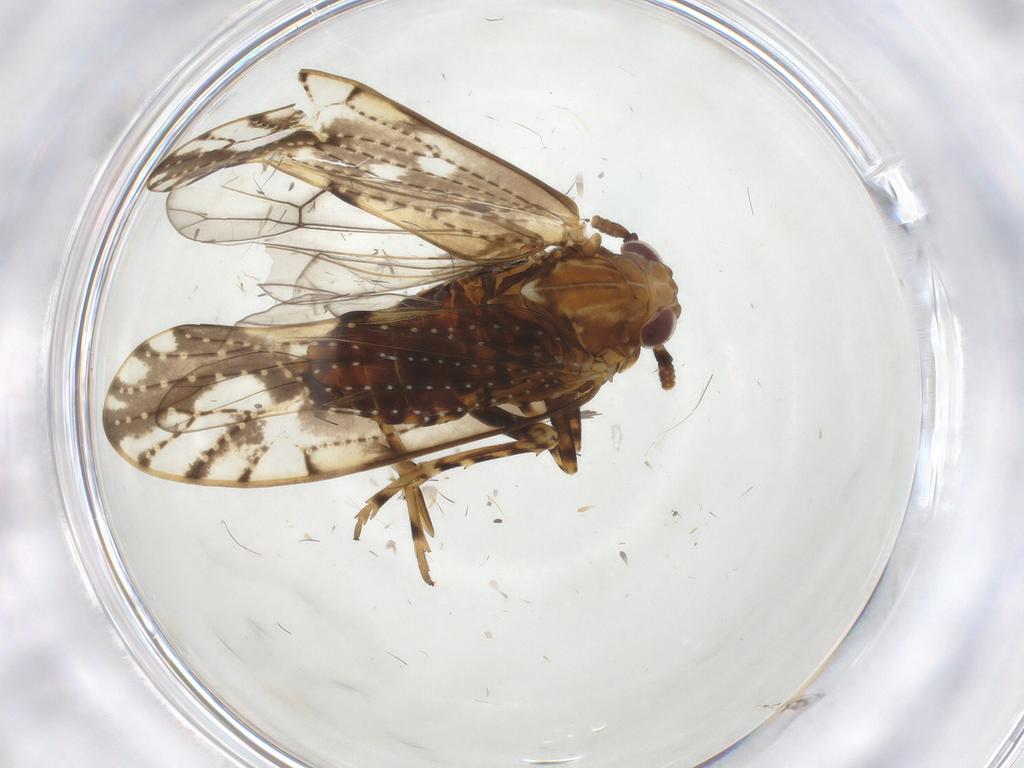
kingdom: Animalia
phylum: Arthropoda
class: Insecta
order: Hemiptera
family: Delphacidae
